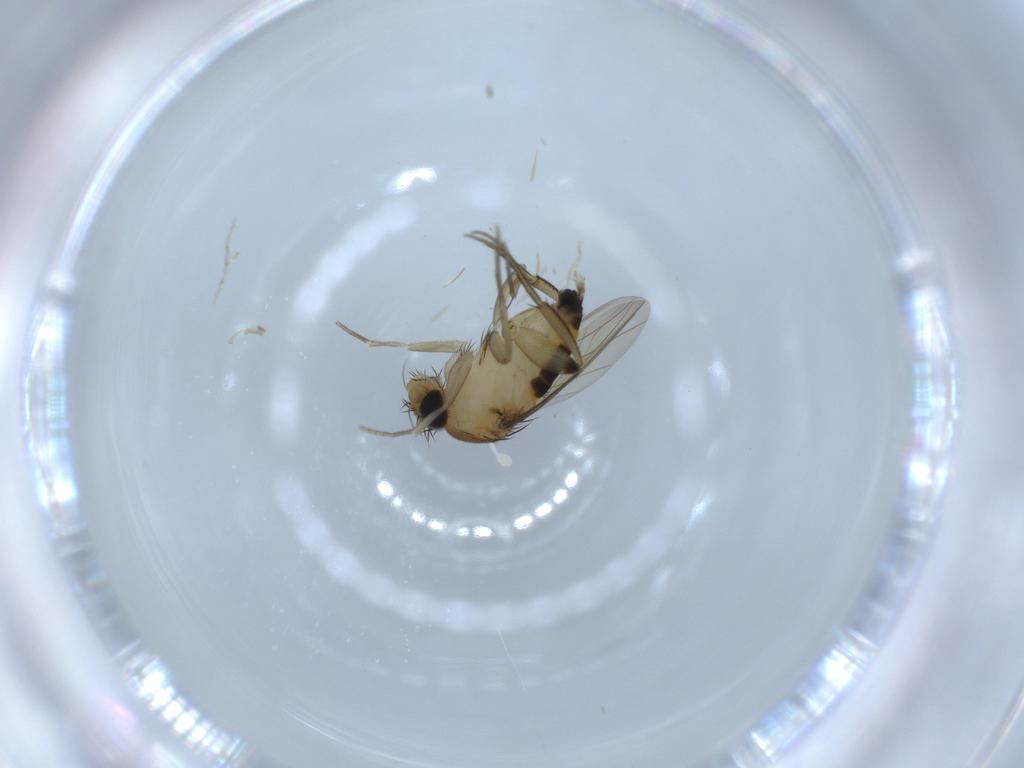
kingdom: Animalia
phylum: Arthropoda
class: Insecta
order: Diptera
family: Phoridae
